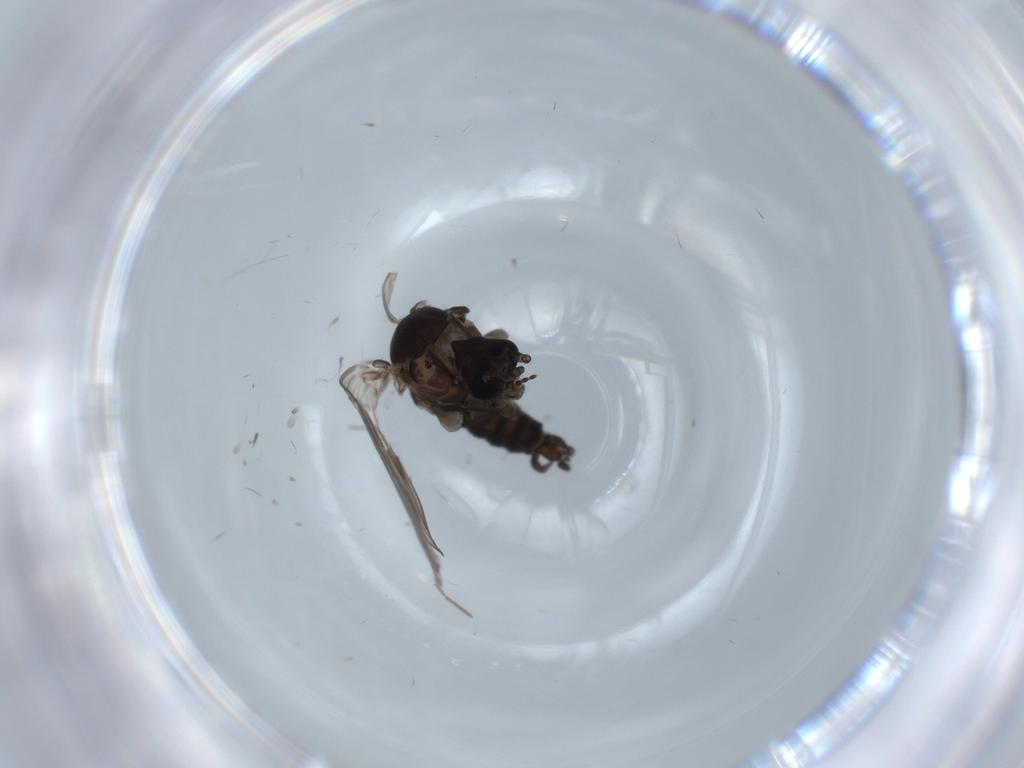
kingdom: Animalia
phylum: Arthropoda
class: Insecta
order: Diptera
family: Psychodidae
